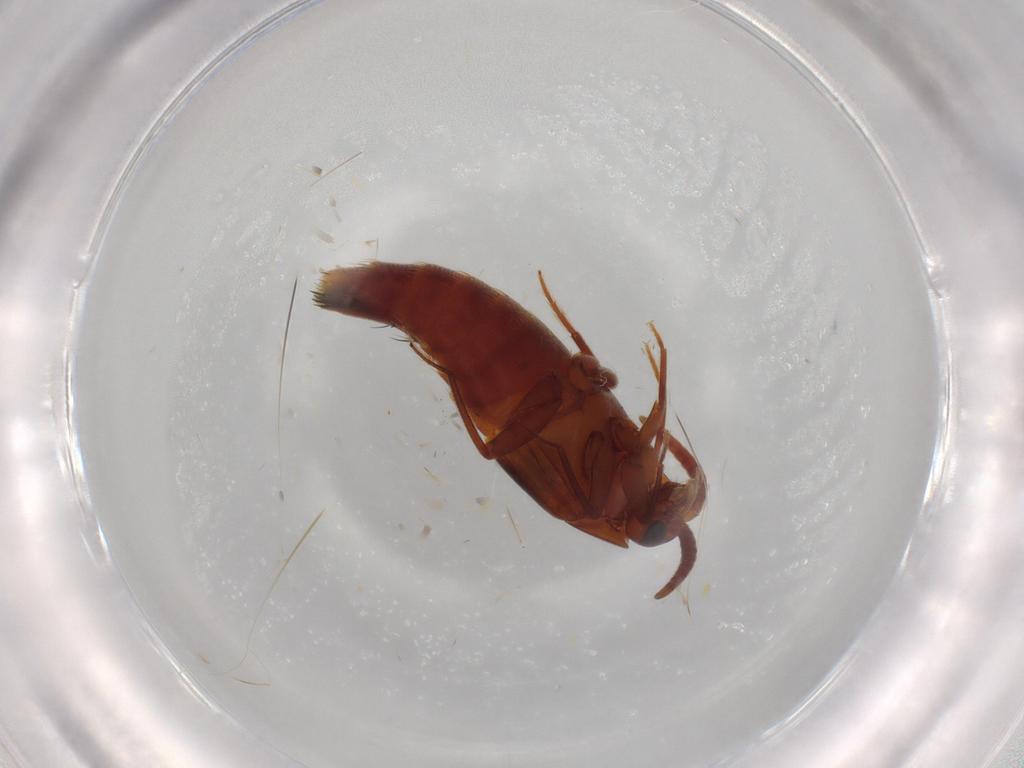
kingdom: Animalia
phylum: Arthropoda
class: Insecta
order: Coleoptera
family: Staphylinidae
